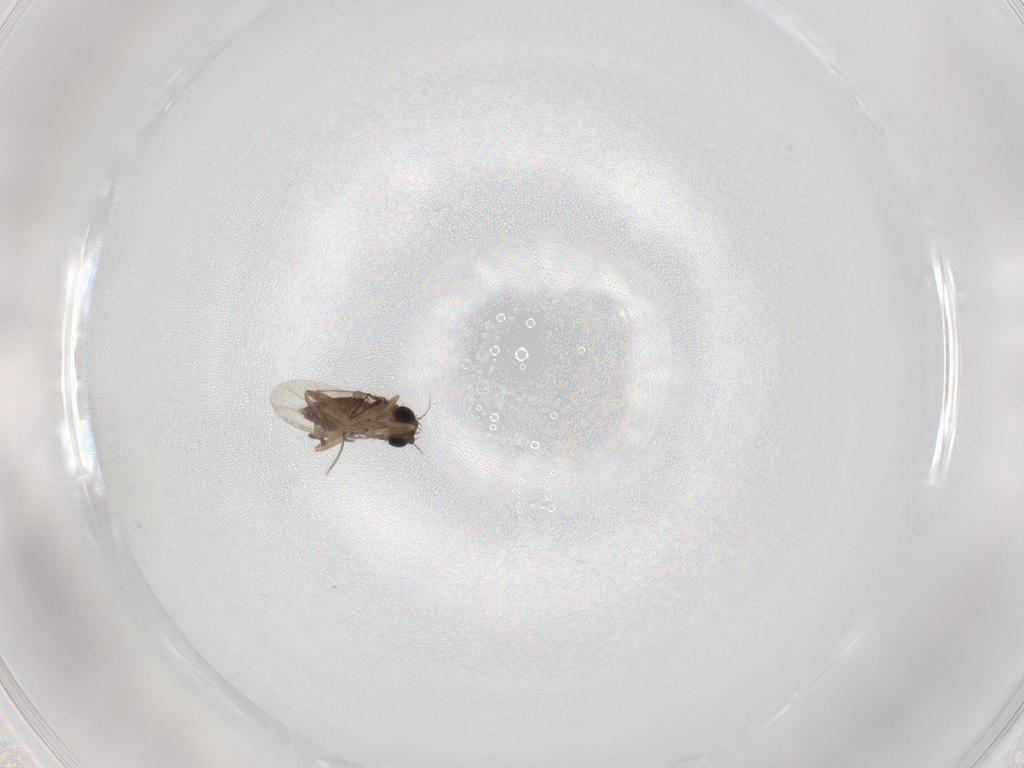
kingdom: Animalia
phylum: Arthropoda
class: Insecta
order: Diptera
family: Phoridae
